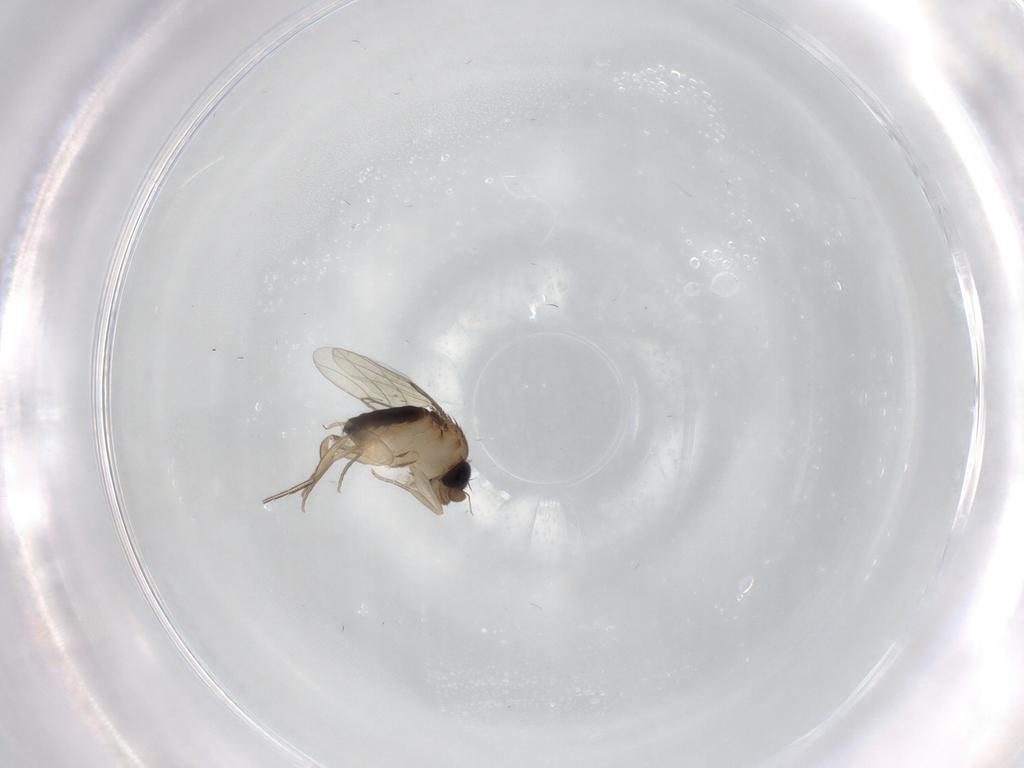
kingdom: Animalia
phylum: Arthropoda
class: Insecta
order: Diptera
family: Phoridae
